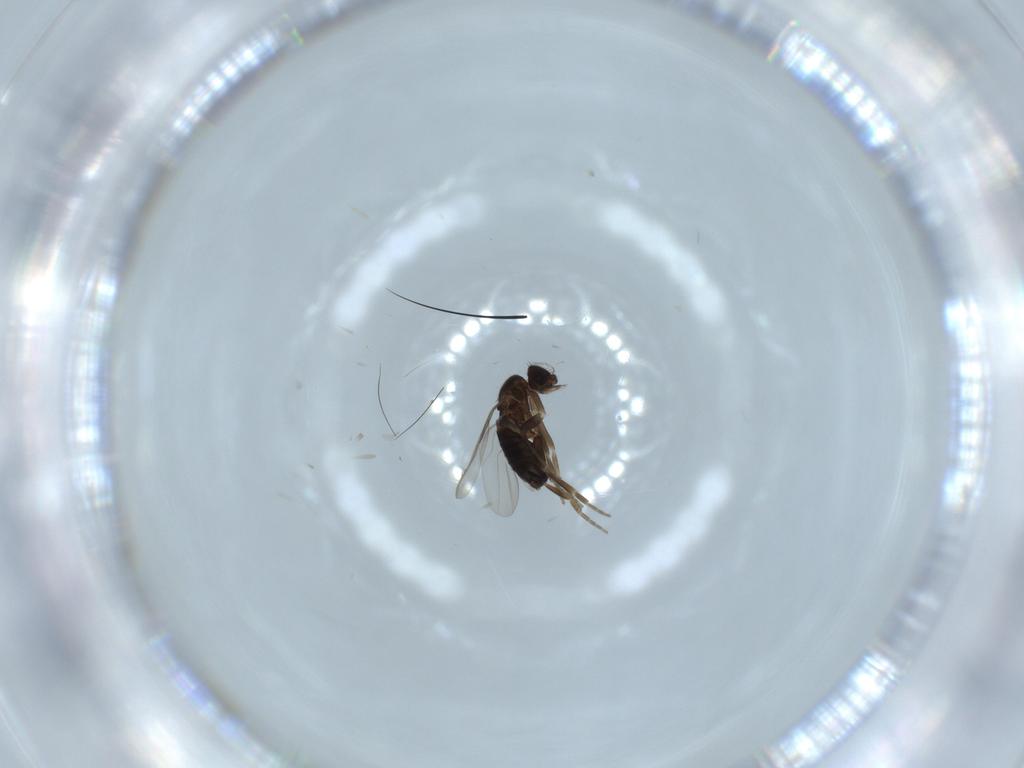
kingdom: Animalia
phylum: Arthropoda
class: Insecta
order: Diptera
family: Phoridae
